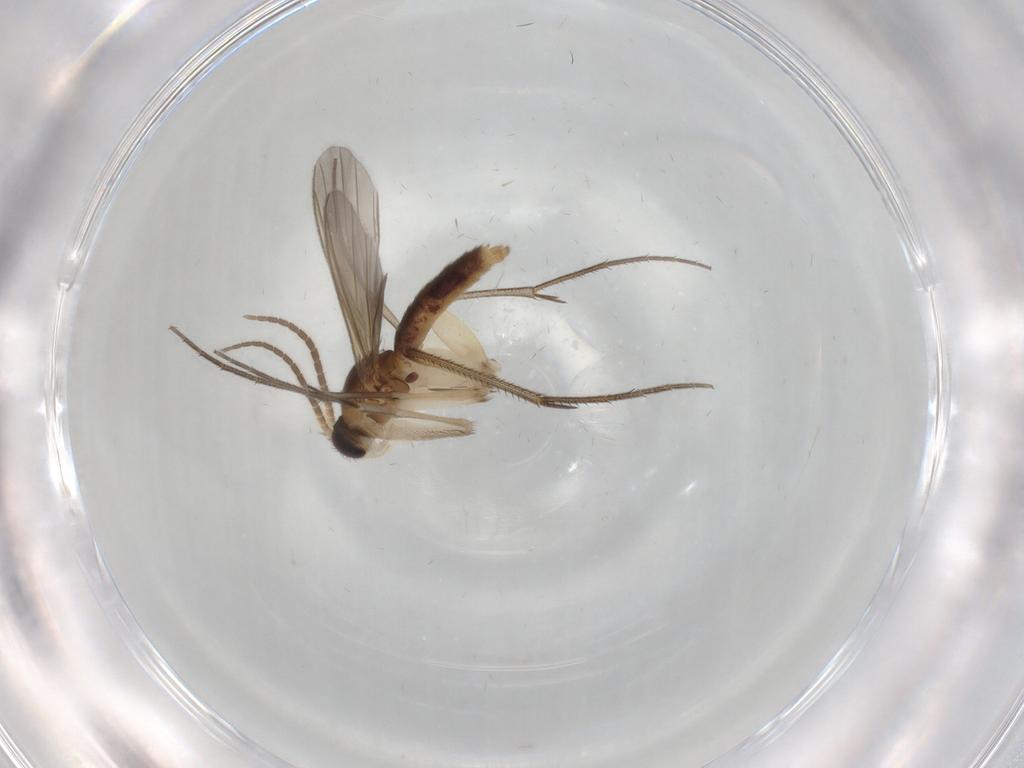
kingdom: Animalia
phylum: Arthropoda
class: Insecta
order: Diptera
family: Mycetophilidae
